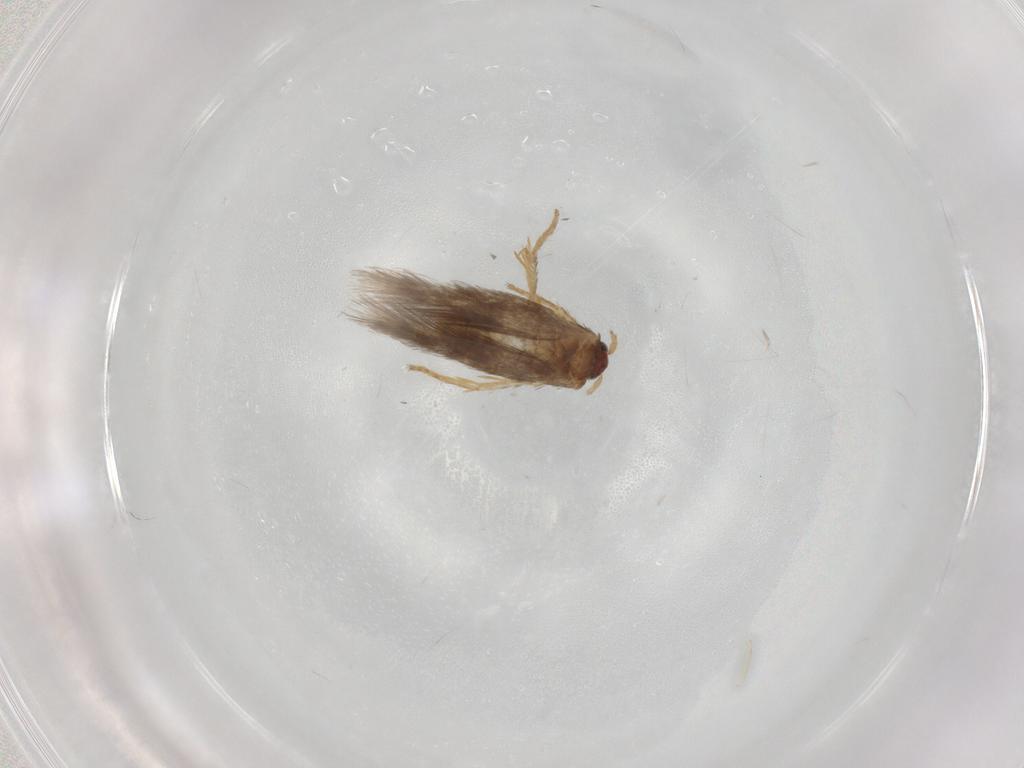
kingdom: Animalia
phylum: Arthropoda
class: Insecta
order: Lepidoptera
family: Nepticulidae
